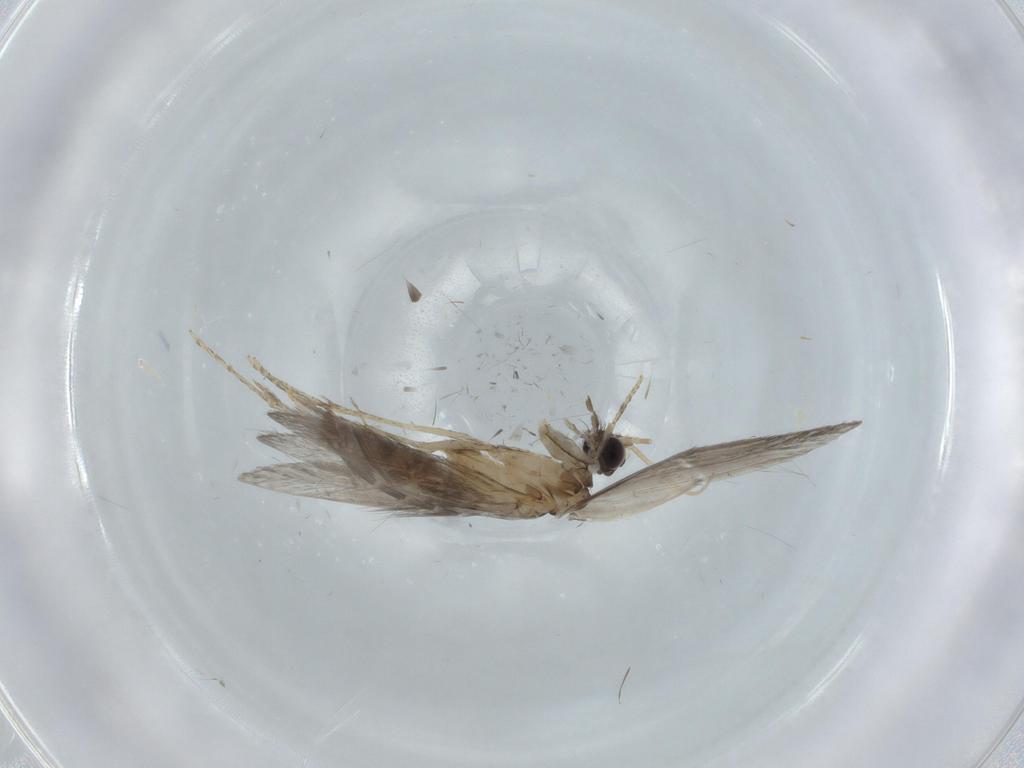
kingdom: Animalia
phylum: Arthropoda
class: Insecta
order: Trichoptera
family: Hydroptilidae
